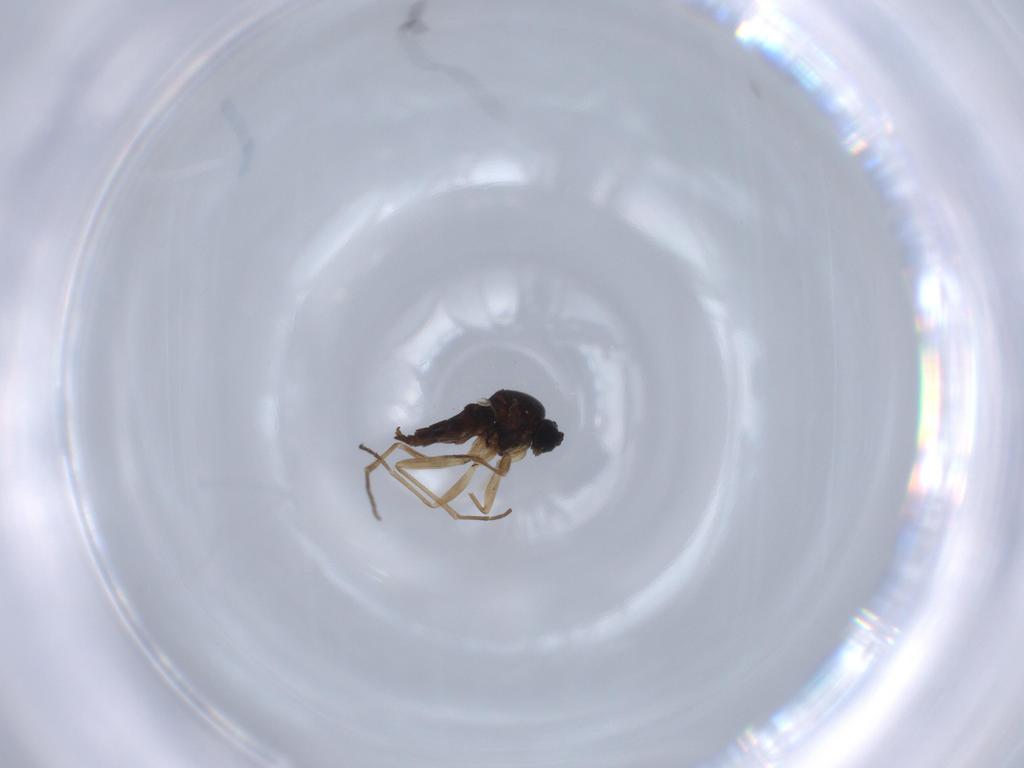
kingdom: Animalia
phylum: Arthropoda
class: Insecta
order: Diptera
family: Sciaridae
